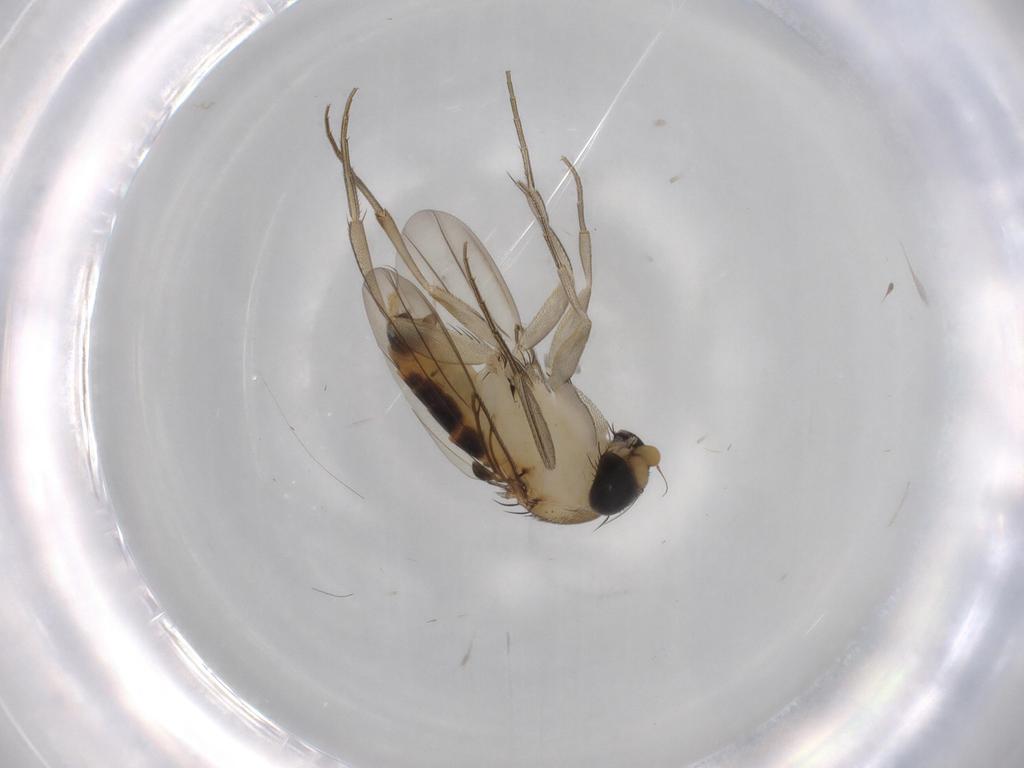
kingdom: Animalia
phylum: Arthropoda
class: Insecta
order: Diptera
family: Phoridae
